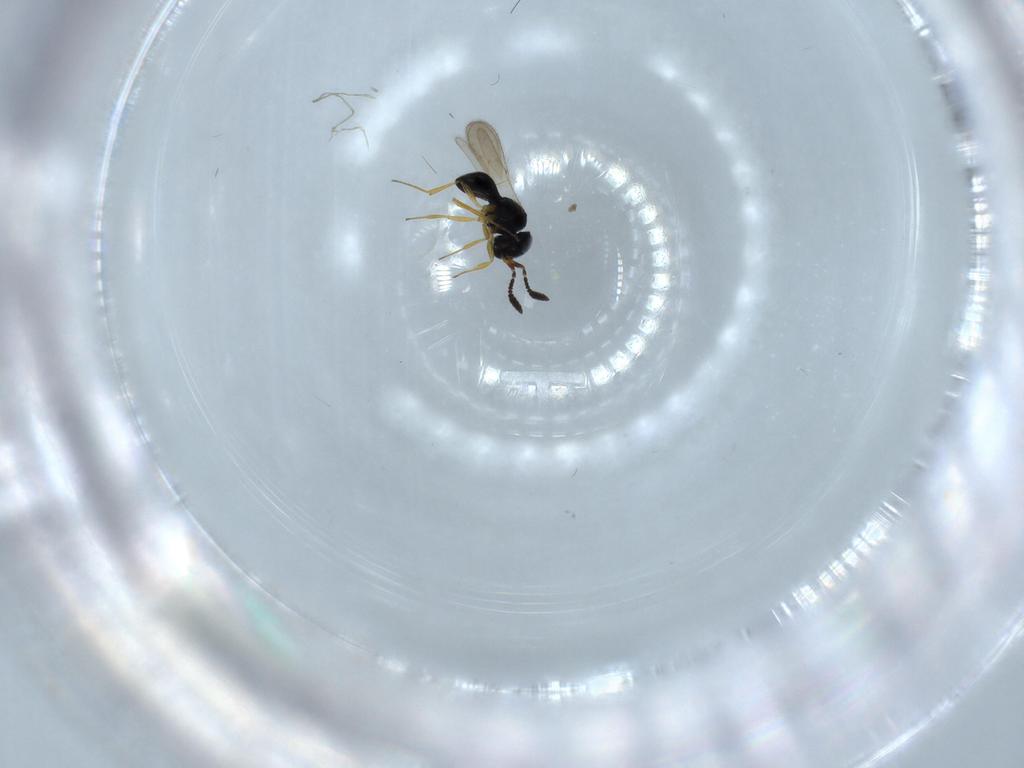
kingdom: Animalia
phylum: Arthropoda
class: Insecta
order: Hymenoptera
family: Scelionidae
